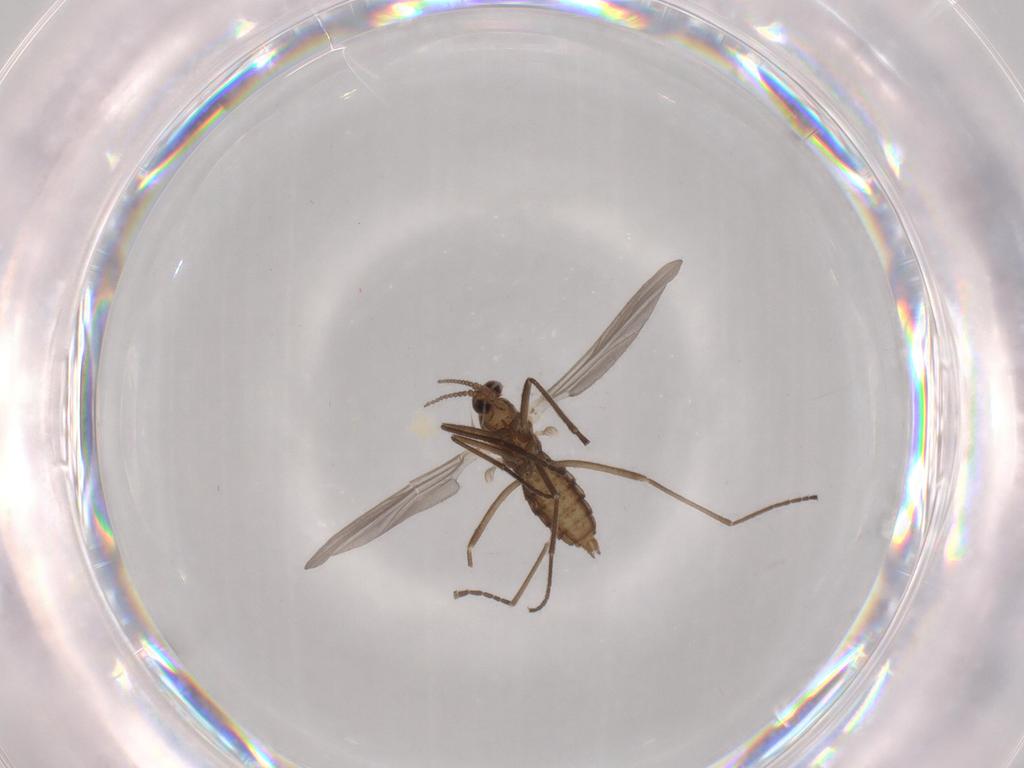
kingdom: Animalia
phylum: Arthropoda
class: Insecta
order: Diptera
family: Cecidomyiidae
